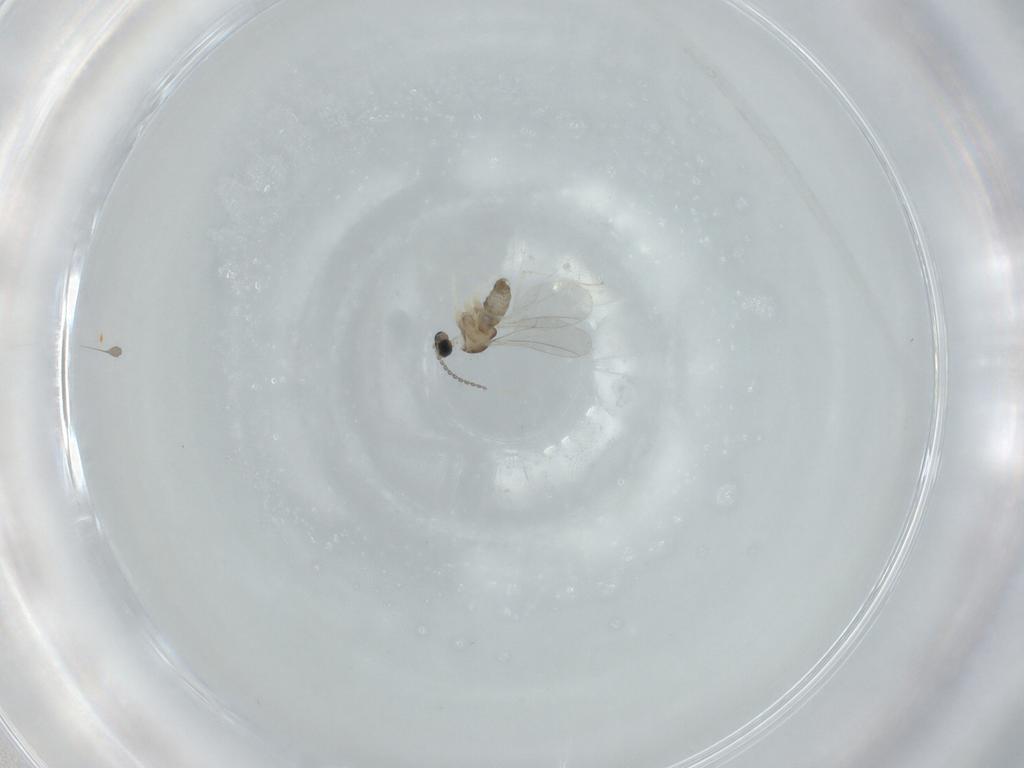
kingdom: Animalia
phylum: Arthropoda
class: Insecta
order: Diptera
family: Cecidomyiidae
